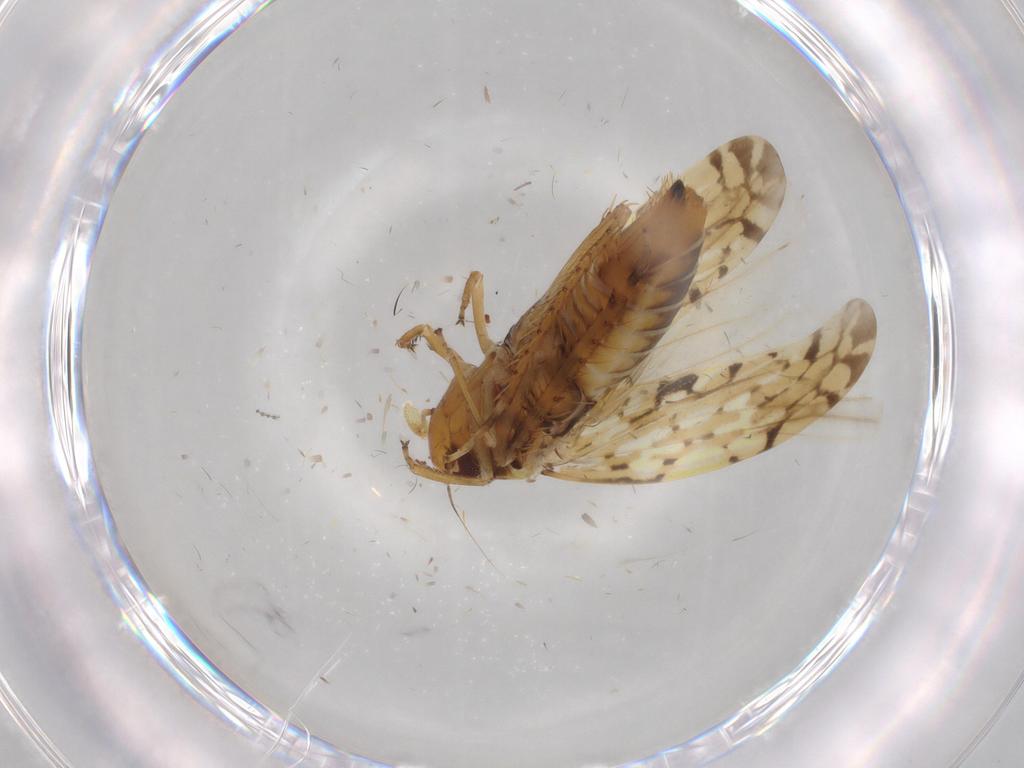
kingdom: Animalia
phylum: Arthropoda
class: Insecta
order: Hemiptera
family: Cicadellidae
